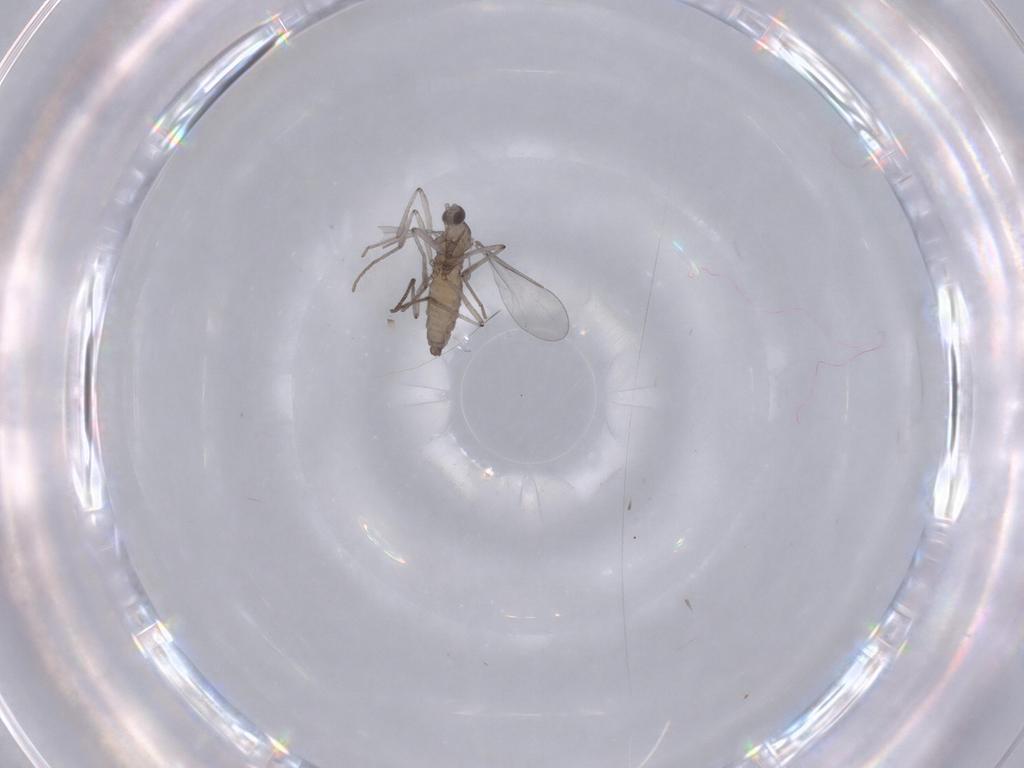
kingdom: Animalia
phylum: Arthropoda
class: Insecta
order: Diptera
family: Cecidomyiidae
